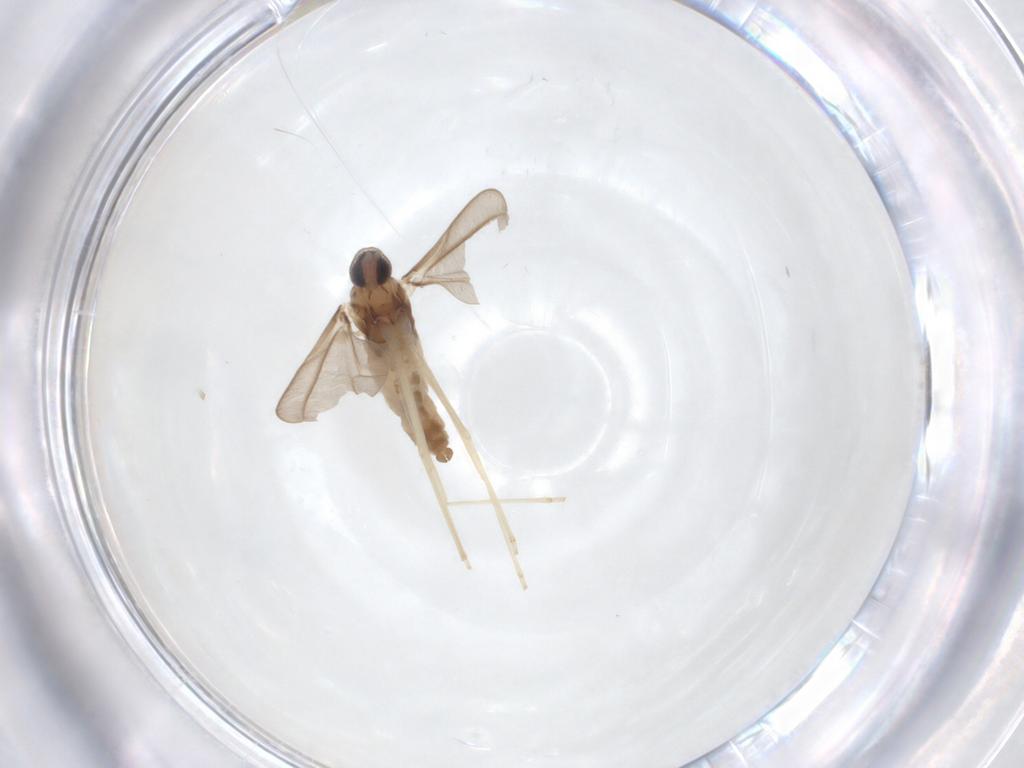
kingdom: Animalia
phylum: Arthropoda
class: Insecta
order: Diptera
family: Cecidomyiidae
